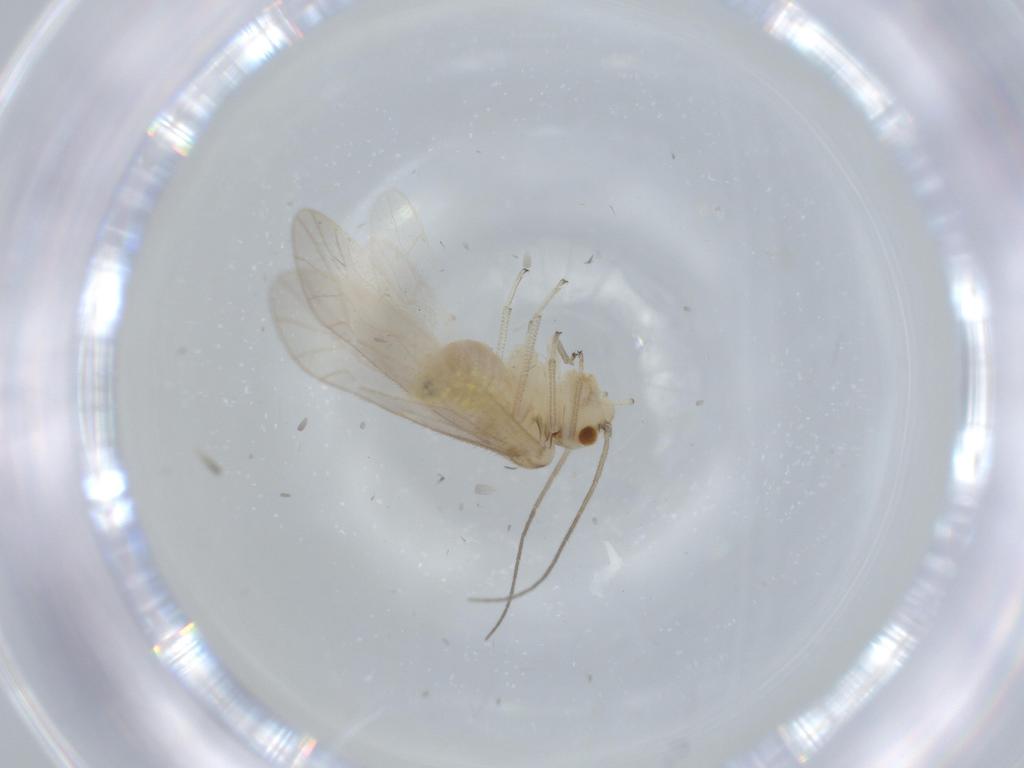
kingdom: Animalia
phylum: Arthropoda
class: Insecta
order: Psocodea
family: Caeciliusidae
